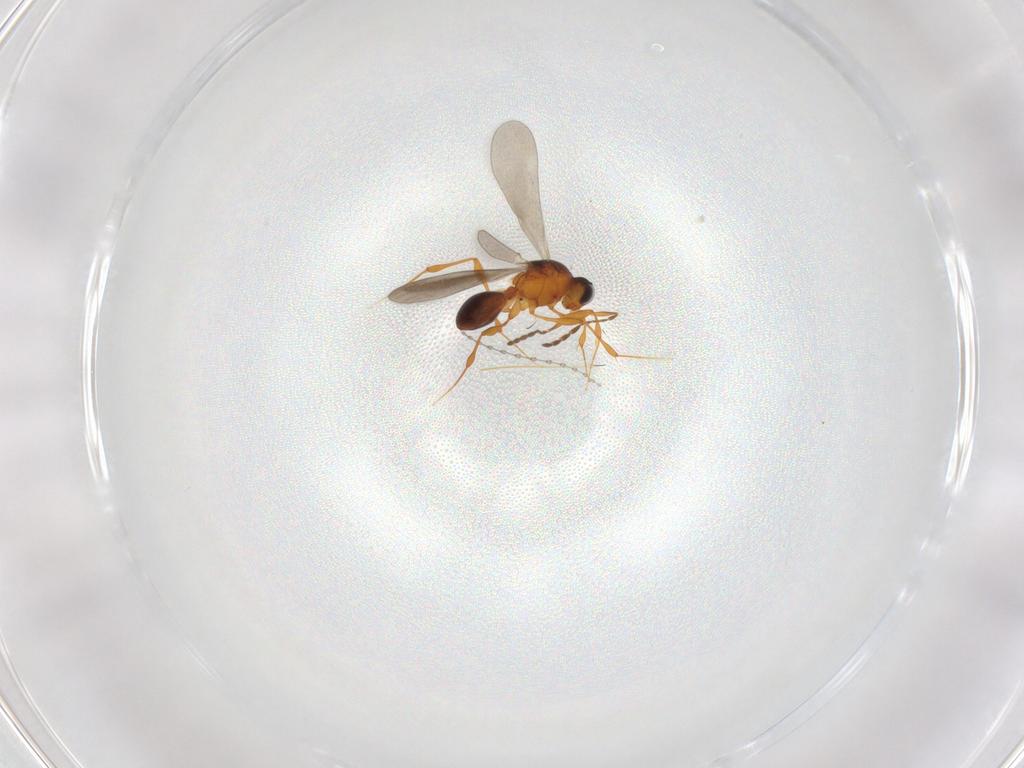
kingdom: Animalia
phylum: Arthropoda
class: Insecta
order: Hymenoptera
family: Platygastridae
